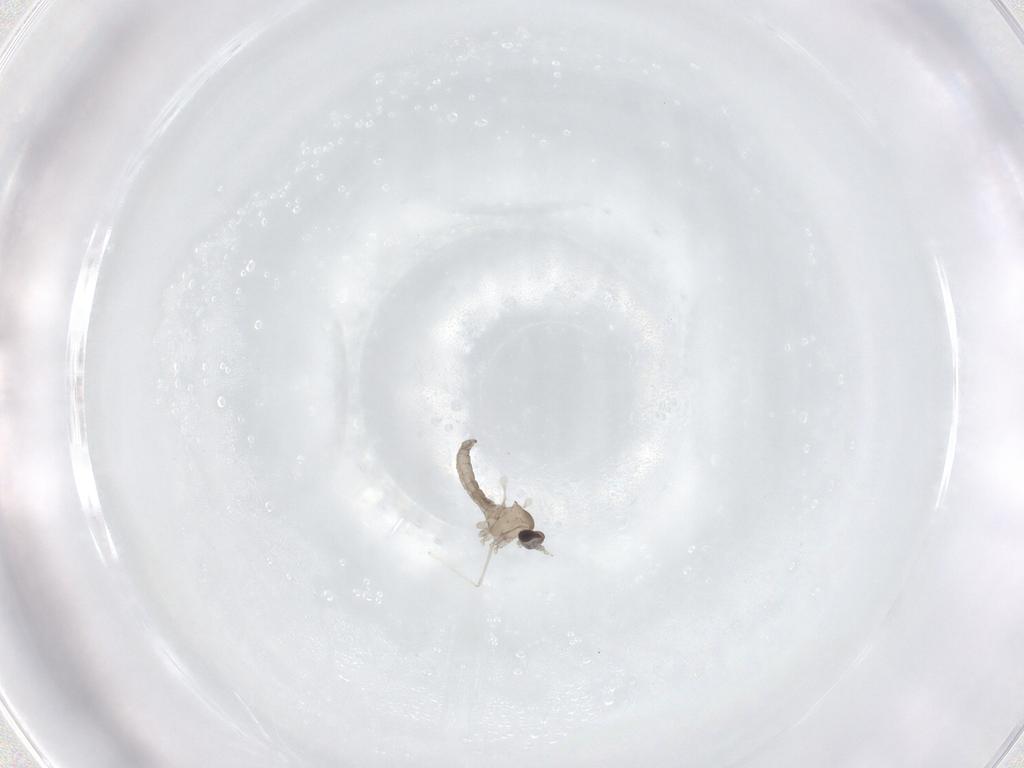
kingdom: Animalia
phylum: Arthropoda
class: Insecta
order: Diptera
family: Cecidomyiidae
